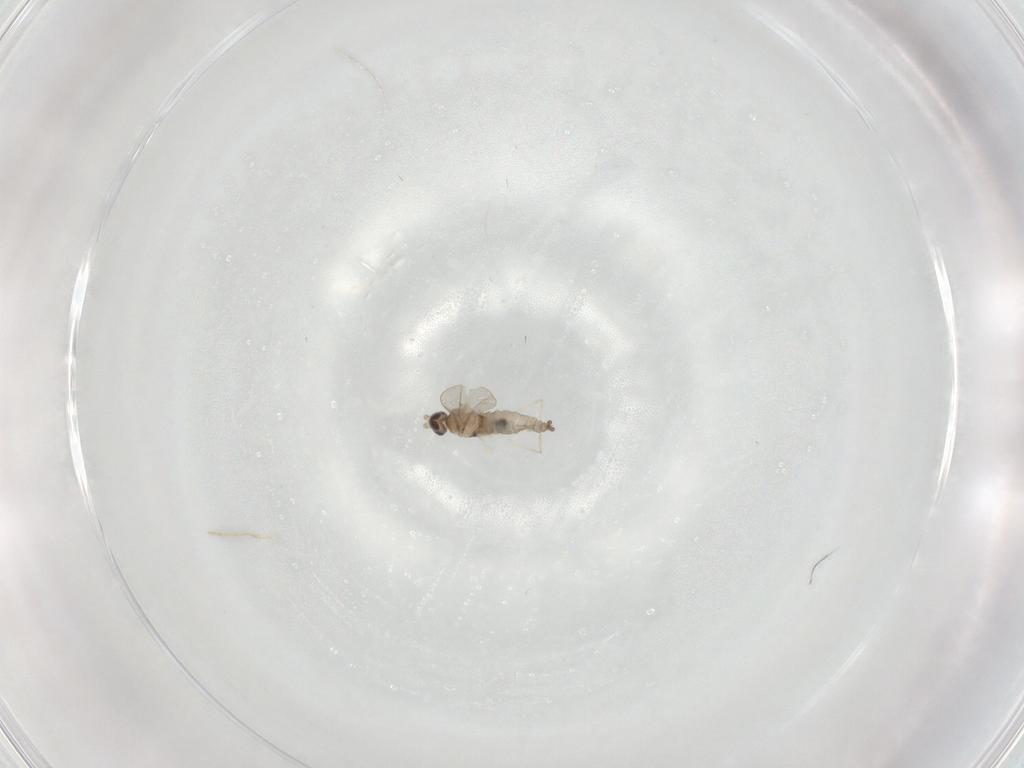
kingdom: Animalia
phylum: Arthropoda
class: Insecta
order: Diptera
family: Cecidomyiidae
